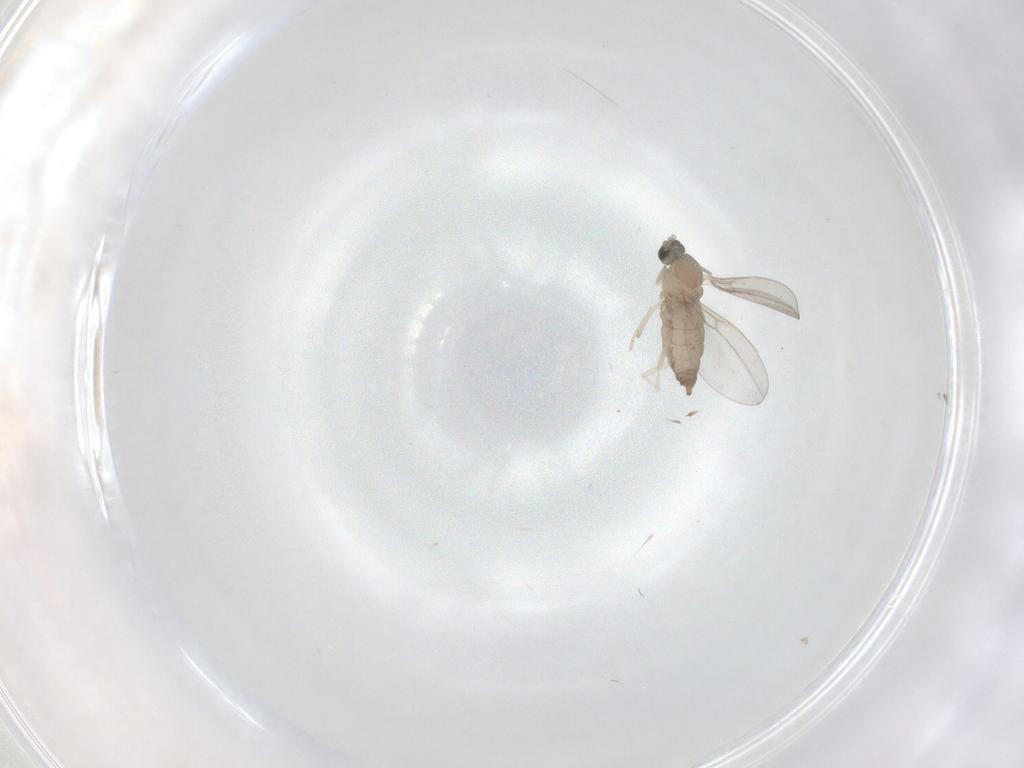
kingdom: Animalia
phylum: Arthropoda
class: Insecta
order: Diptera
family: Cecidomyiidae
